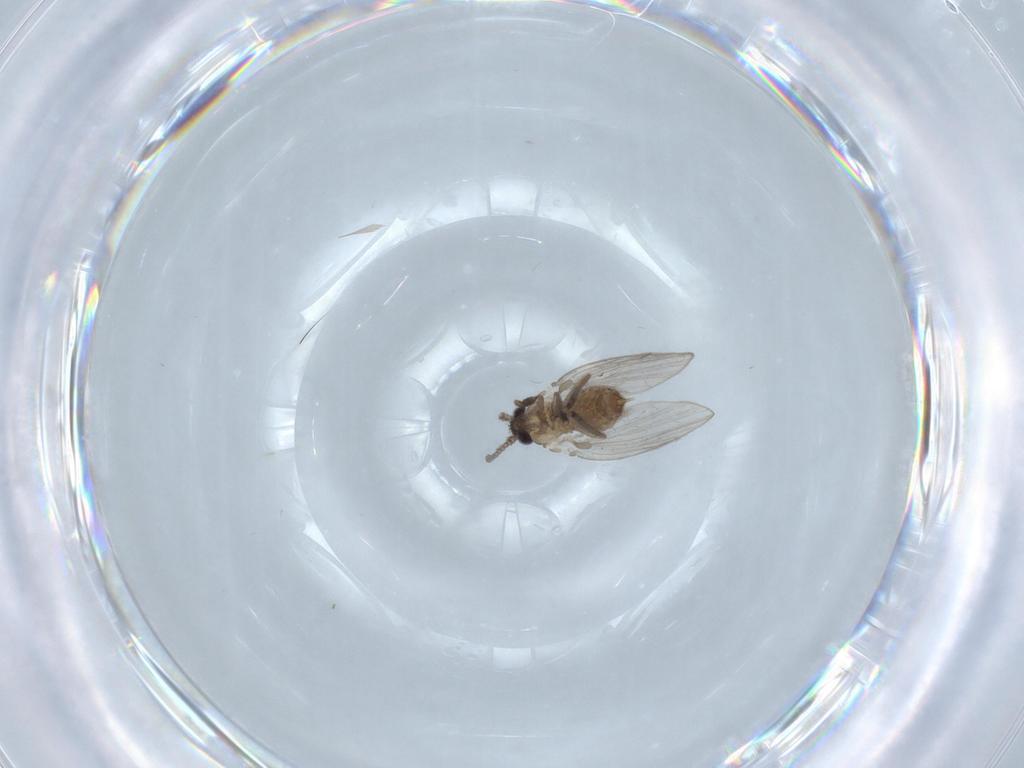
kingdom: Animalia
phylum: Arthropoda
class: Insecta
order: Diptera
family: Psychodidae
